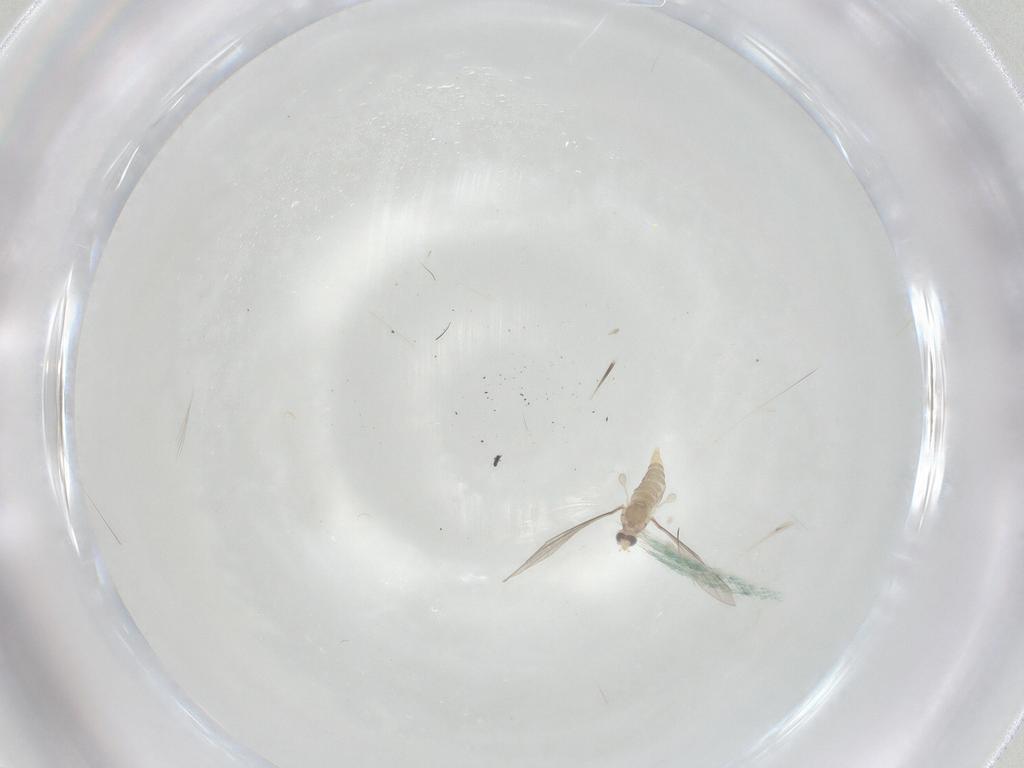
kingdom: Animalia
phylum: Arthropoda
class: Insecta
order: Diptera
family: Cecidomyiidae
